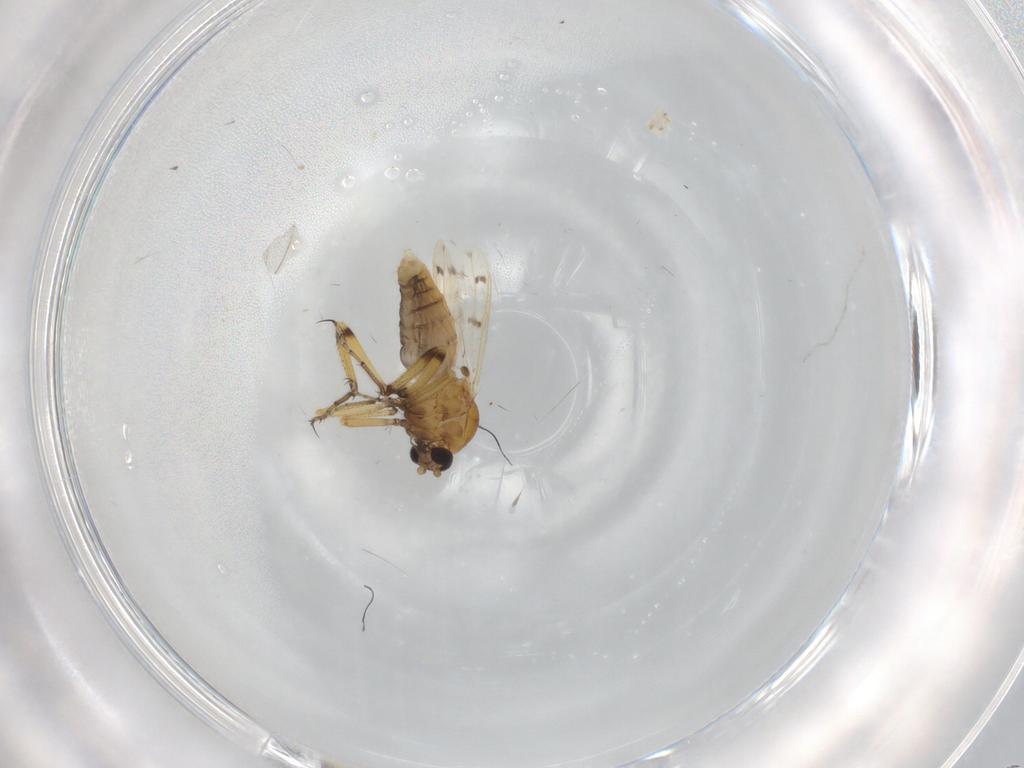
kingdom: Animalia
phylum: Arthropoda
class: Insecta
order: Diptera
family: Ceratopogonidae
